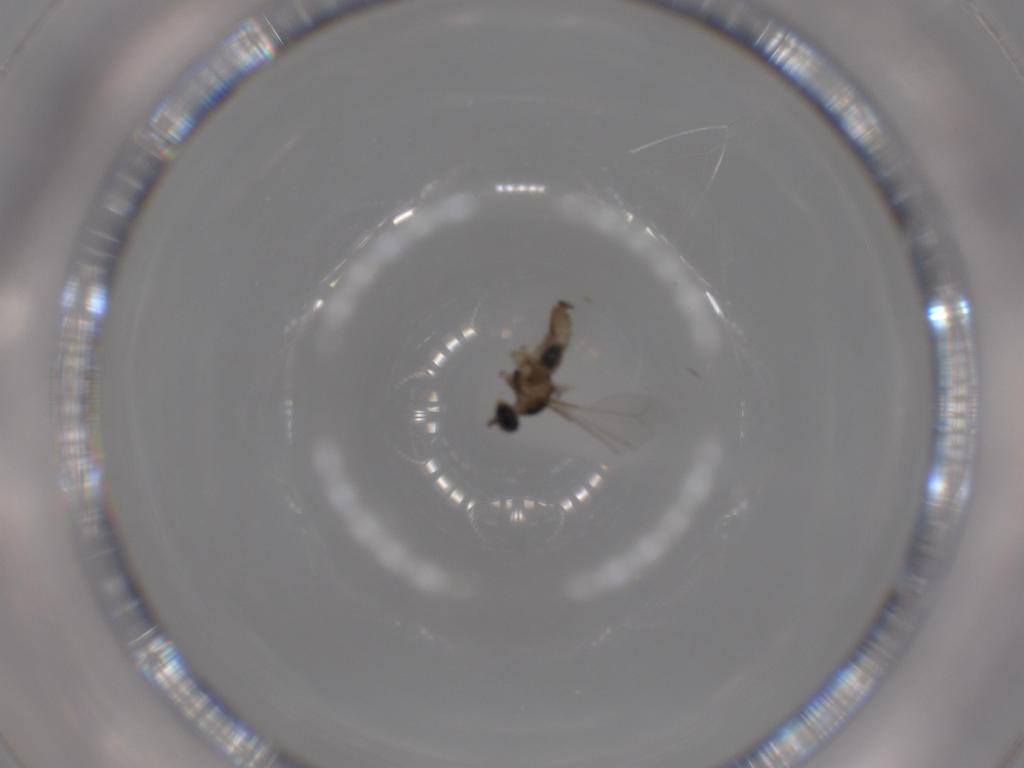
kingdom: Animalia
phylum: Arthropoda
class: Insecta
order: Diptera
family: Cecidomyiidae
